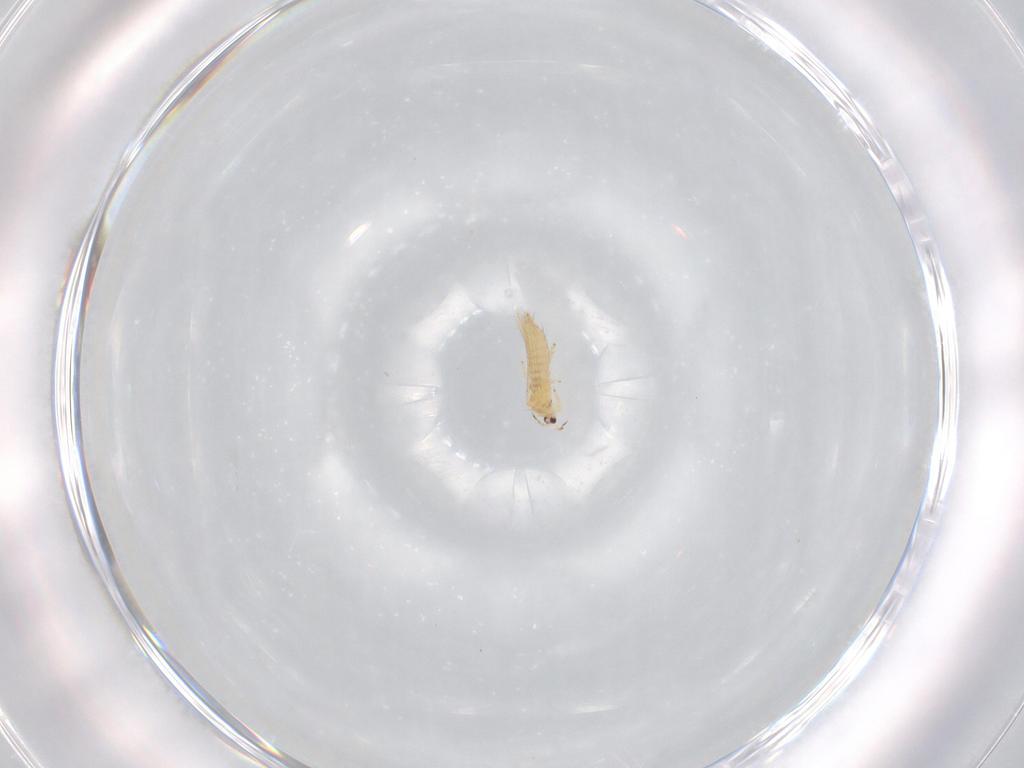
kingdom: Animalia
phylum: Arthropoda
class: Insecta
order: Thysanoptera
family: Thripidae
